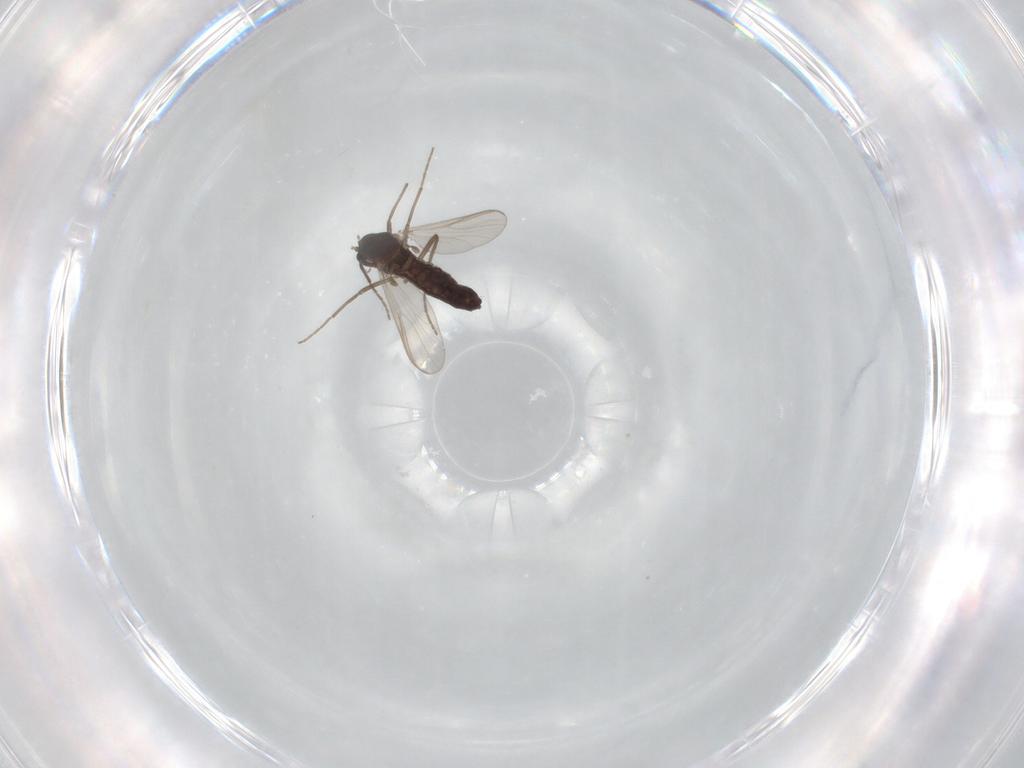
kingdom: Animalia
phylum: Arthropoda
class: Insecta
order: Diptera
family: Chironomidae
